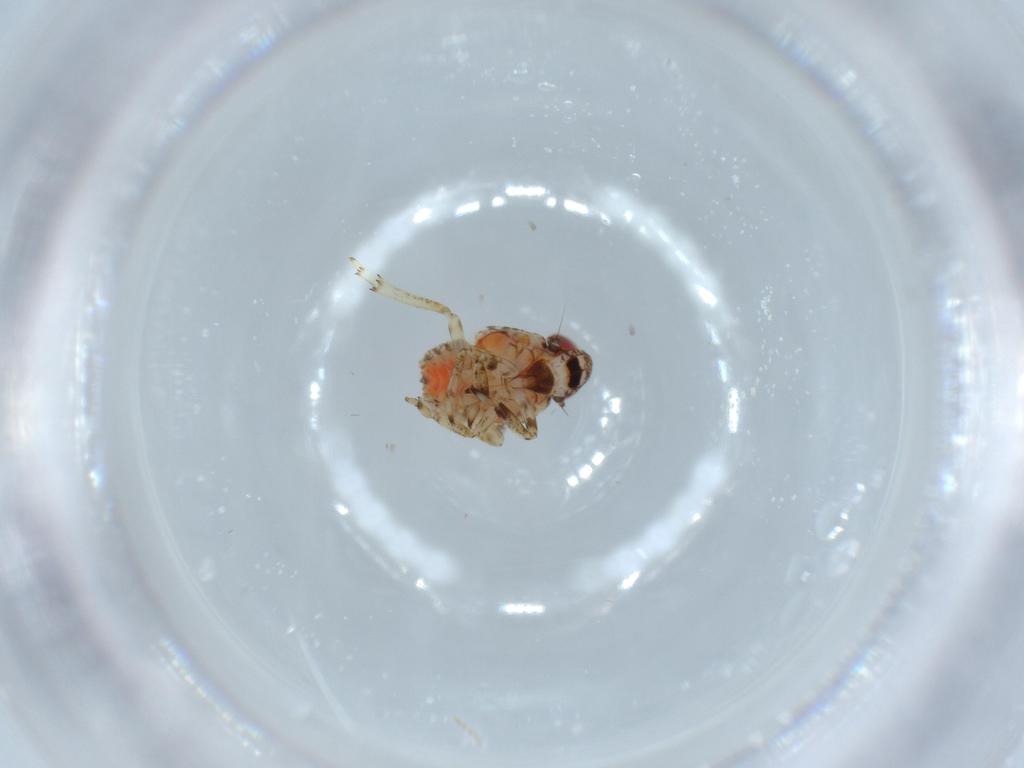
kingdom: Animalia
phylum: Arthropoda
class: Insecta
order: Hemiptera
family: Issidae
